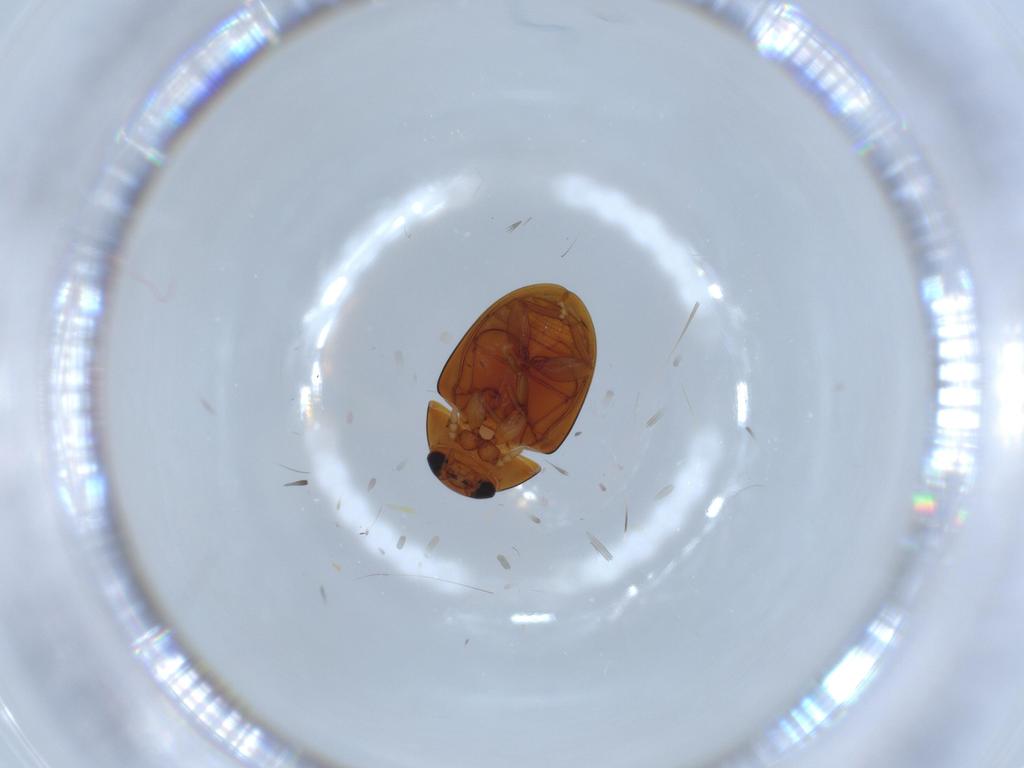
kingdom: Animalia
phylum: Arthropoda
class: Insecta
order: Coleoptera
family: Phalacridae
